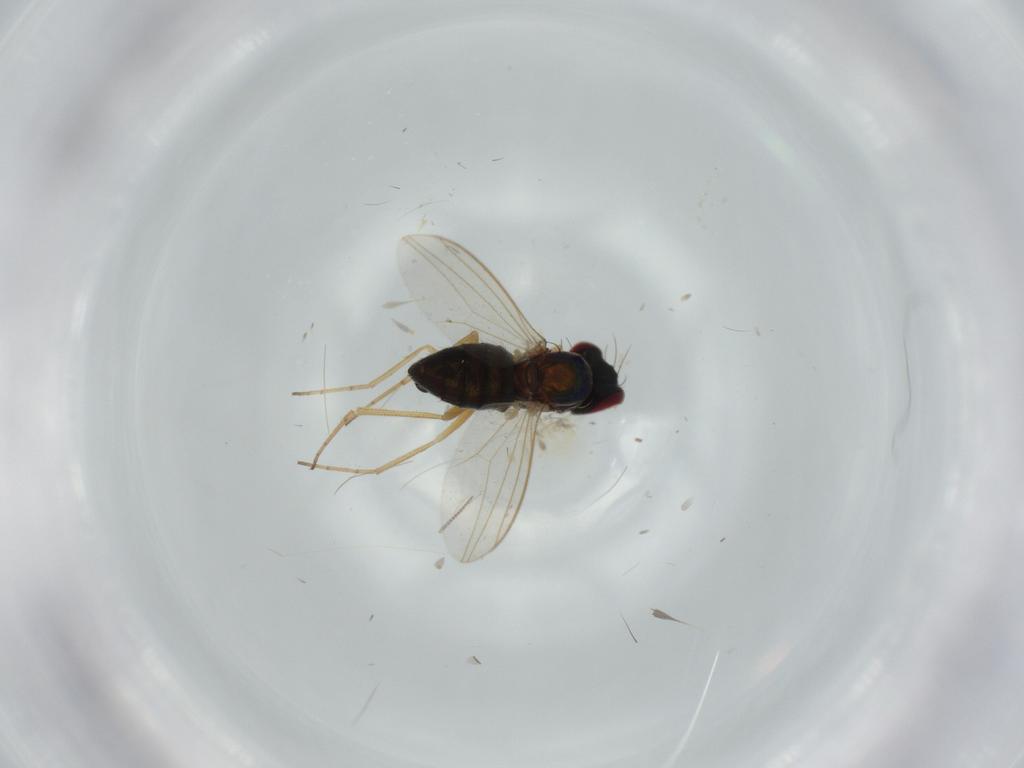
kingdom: Animalia
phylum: Arthropoda
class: Insecta
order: Diptera
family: Dolichopodidae
